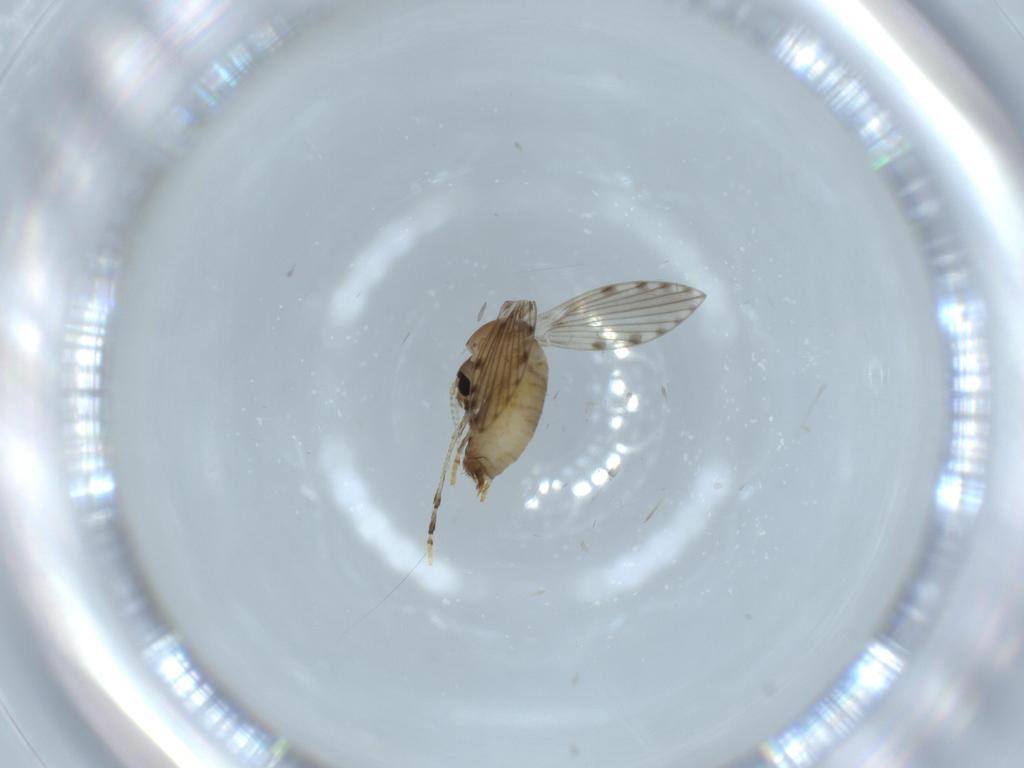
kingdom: Animalia
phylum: Arthropoda
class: Insecta
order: Diptera
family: Psychodidae
